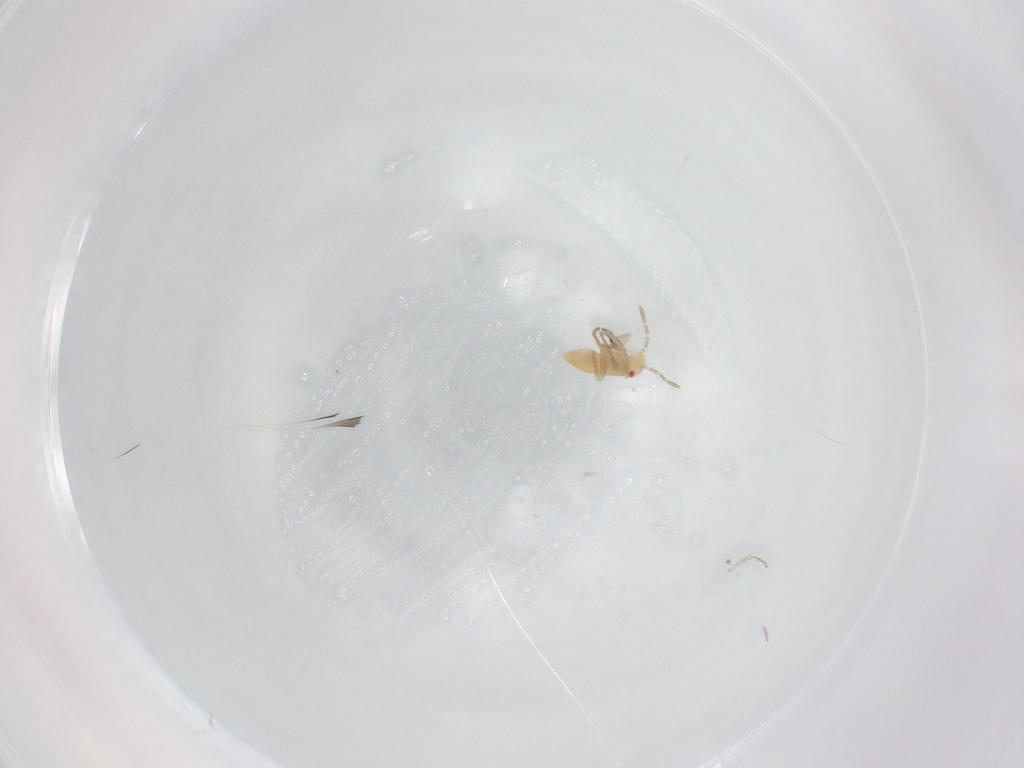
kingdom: Animalia
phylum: Arthropoda
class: Insecta
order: Hemiptera
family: Miridae
